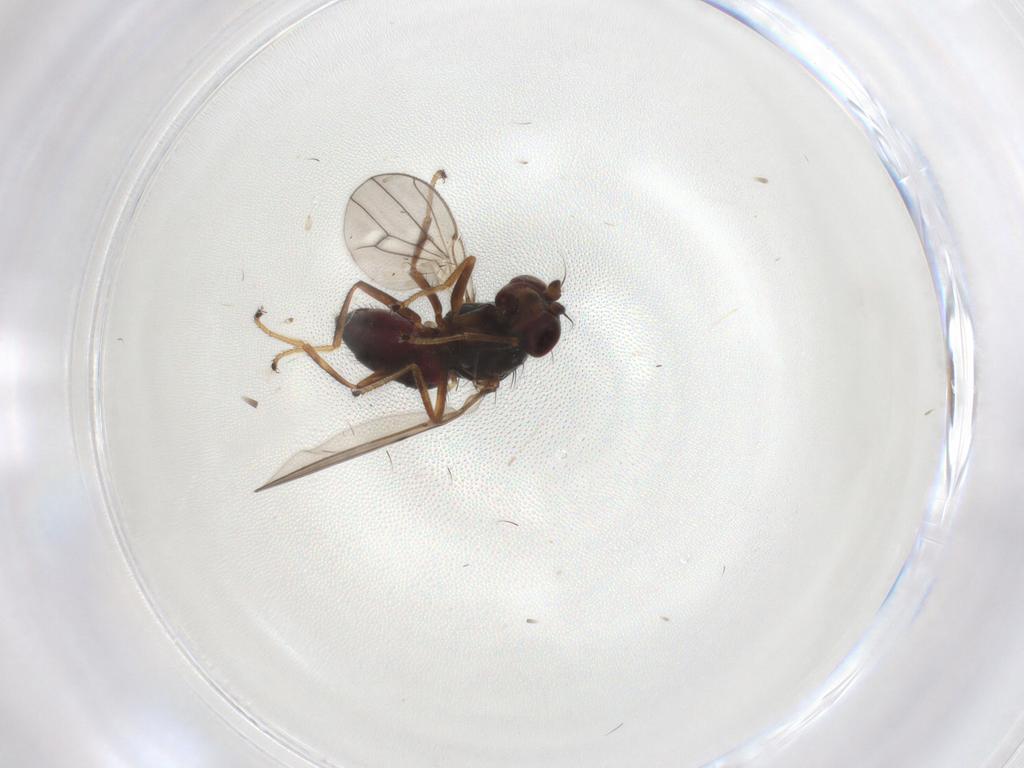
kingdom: Animalia
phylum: Arthropoda
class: Insecta
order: Diptera
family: Ephydridae
